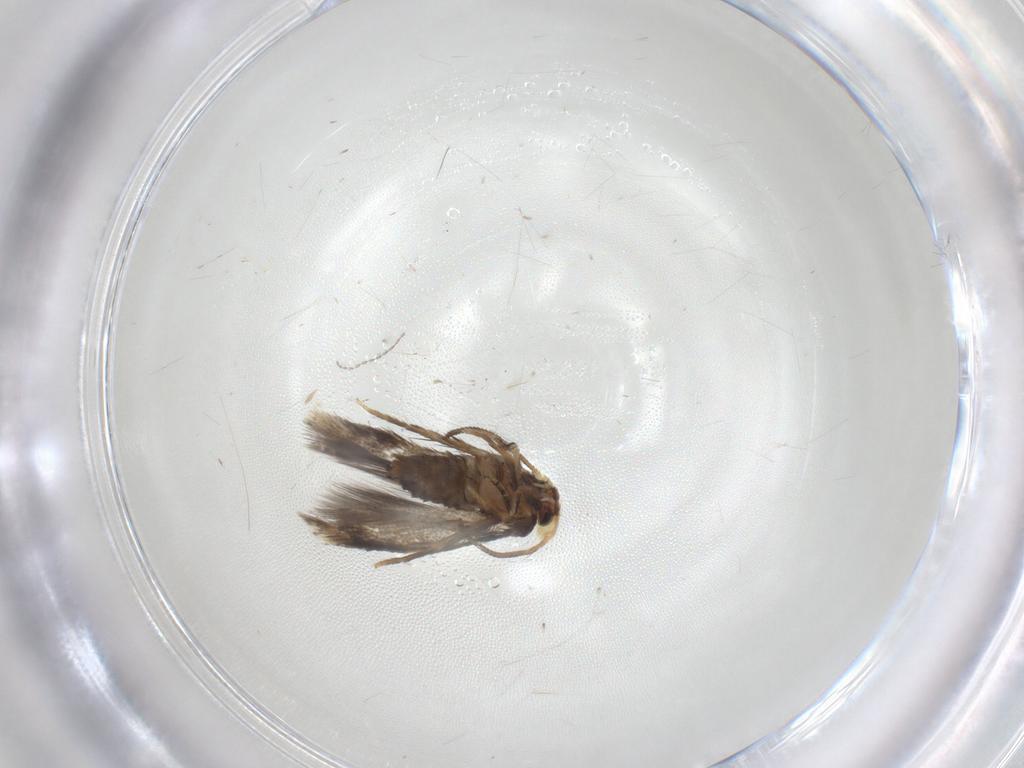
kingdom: Animalia
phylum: Arthropoda
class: Insecta
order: Lepidoptera
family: Nepticulidae
